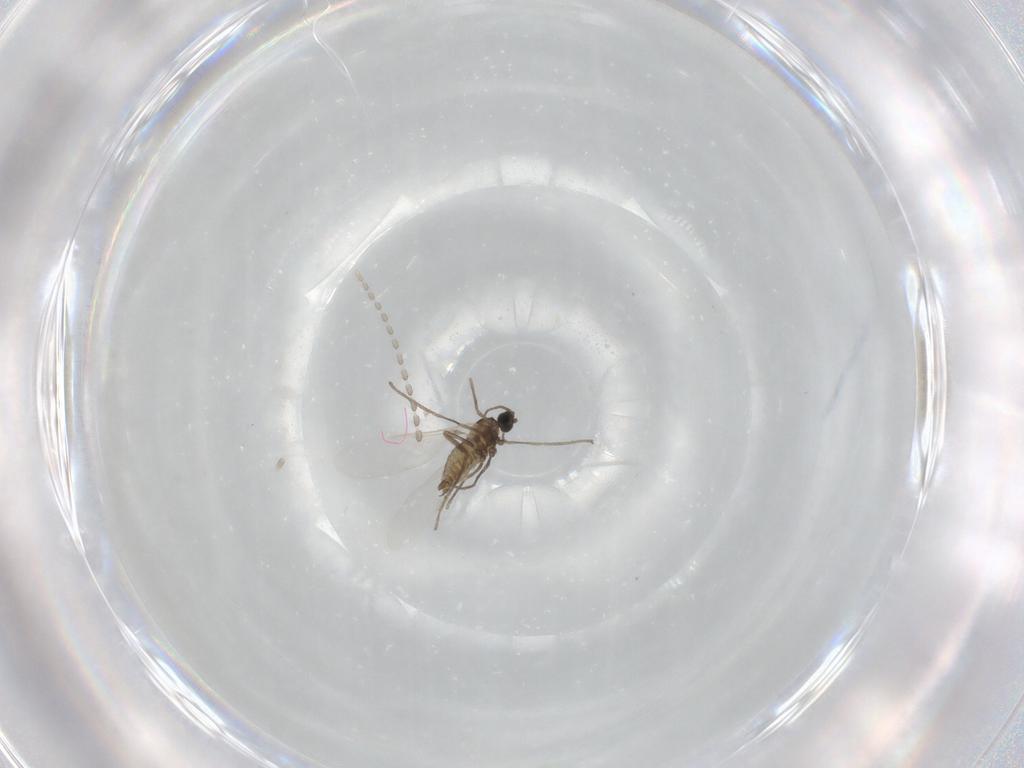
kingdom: Animalia
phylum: Arthropoda
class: Insecta
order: Diptera
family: Cecidomyiidae
